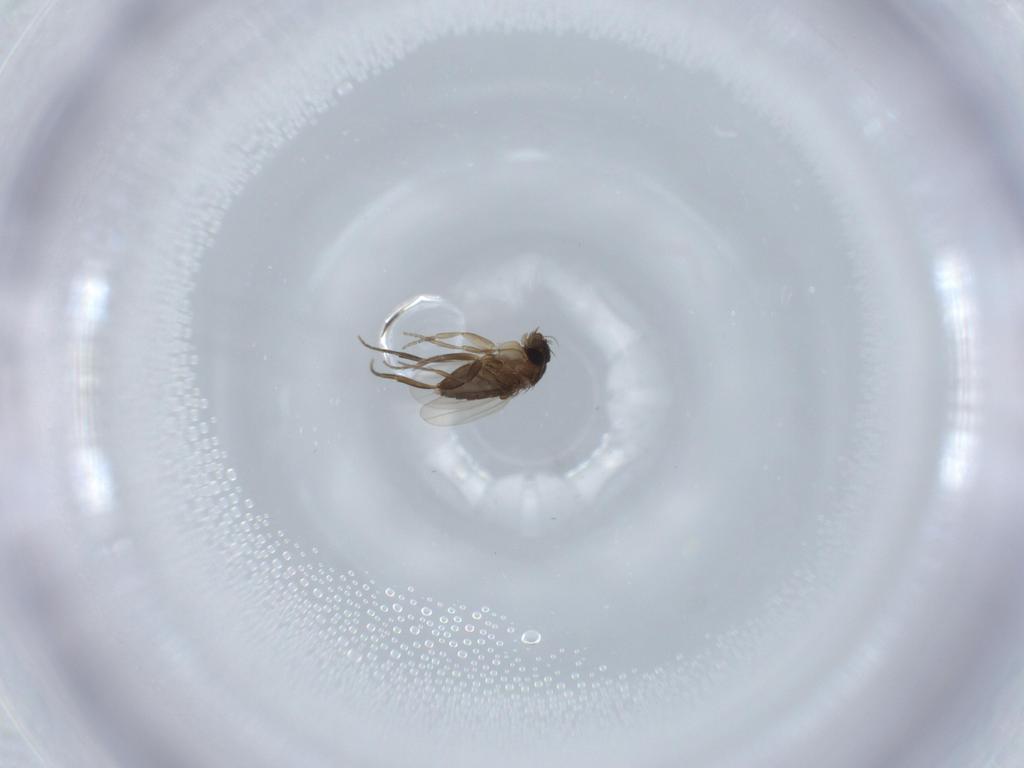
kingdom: Animalia
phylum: Arthropoda
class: Insecta
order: Diptera
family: Phoridae
